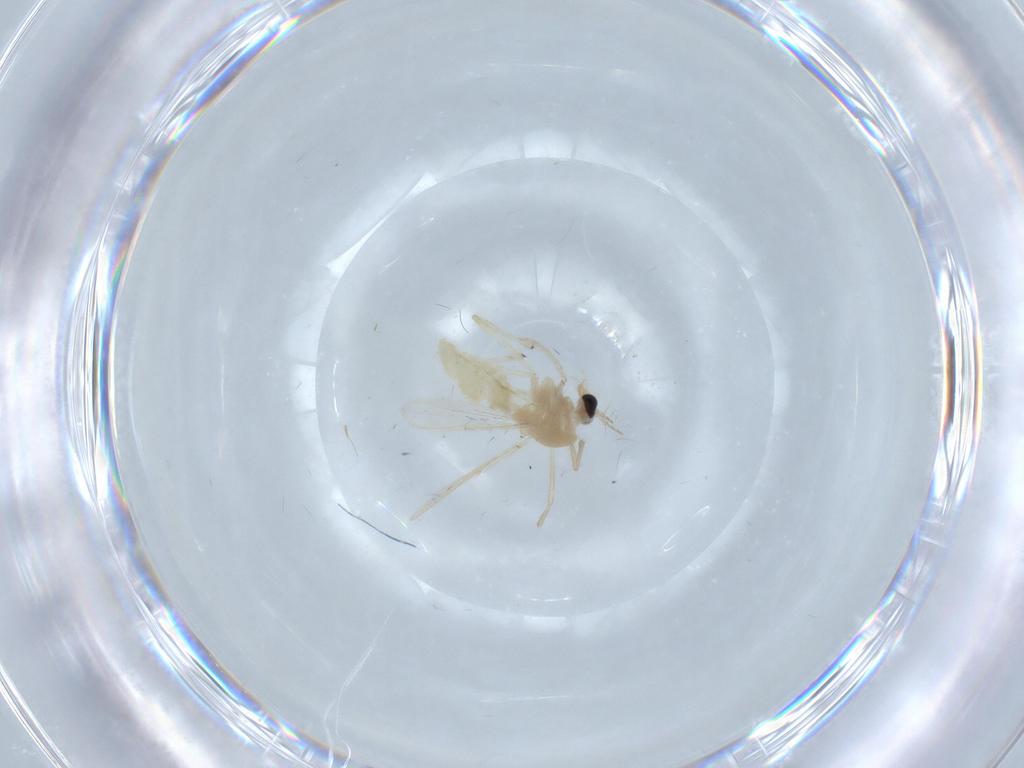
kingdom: Animalia
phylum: Arthropoda
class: Insecta
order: Diptera
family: Chironomidae
